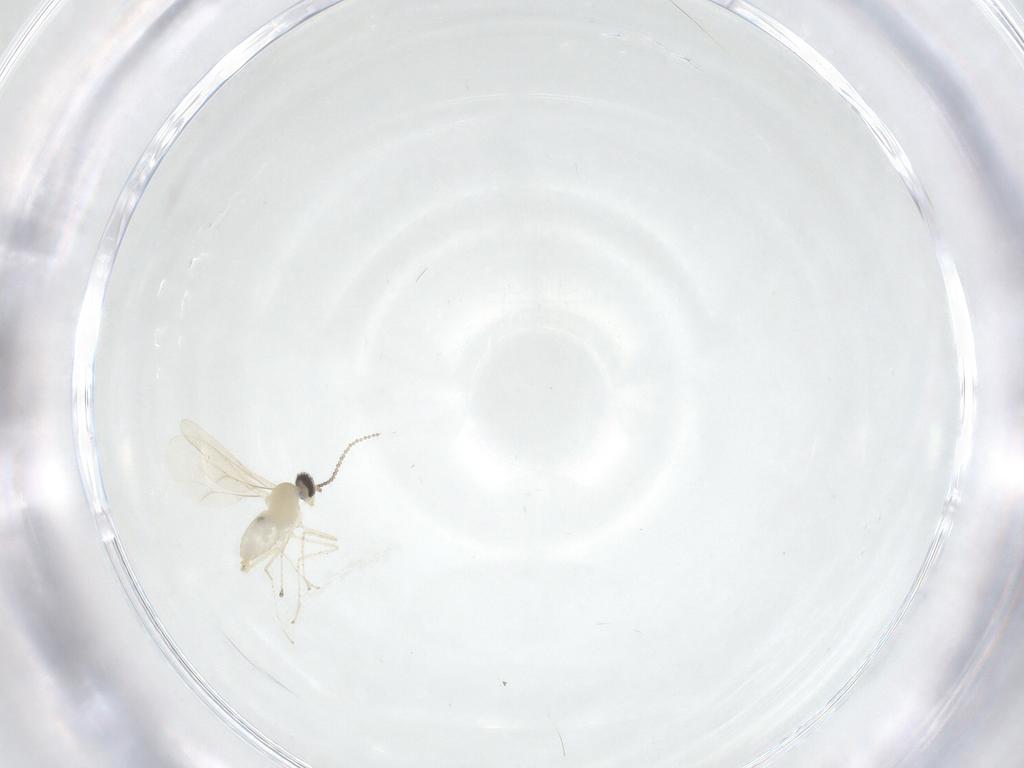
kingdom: Animalia
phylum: Arthropoda
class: Insecta
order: Diptera
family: Cecidomyiidae
